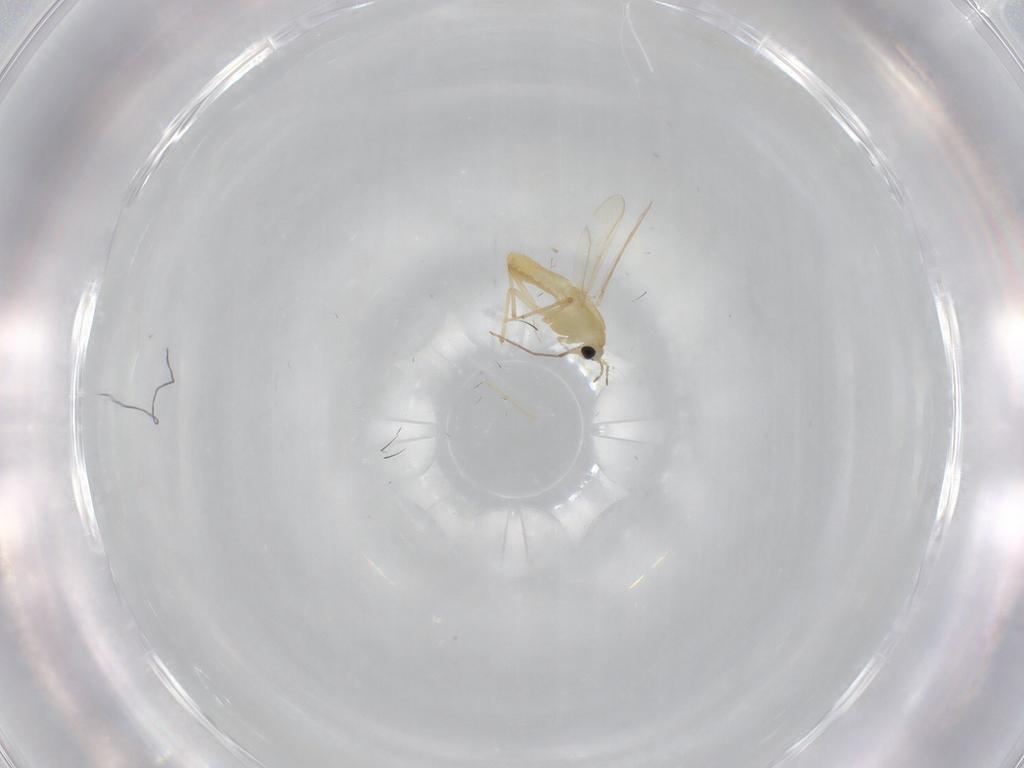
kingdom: Animalia
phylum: Arthropoda
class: Insecta
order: Diptera
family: Chironomidae
